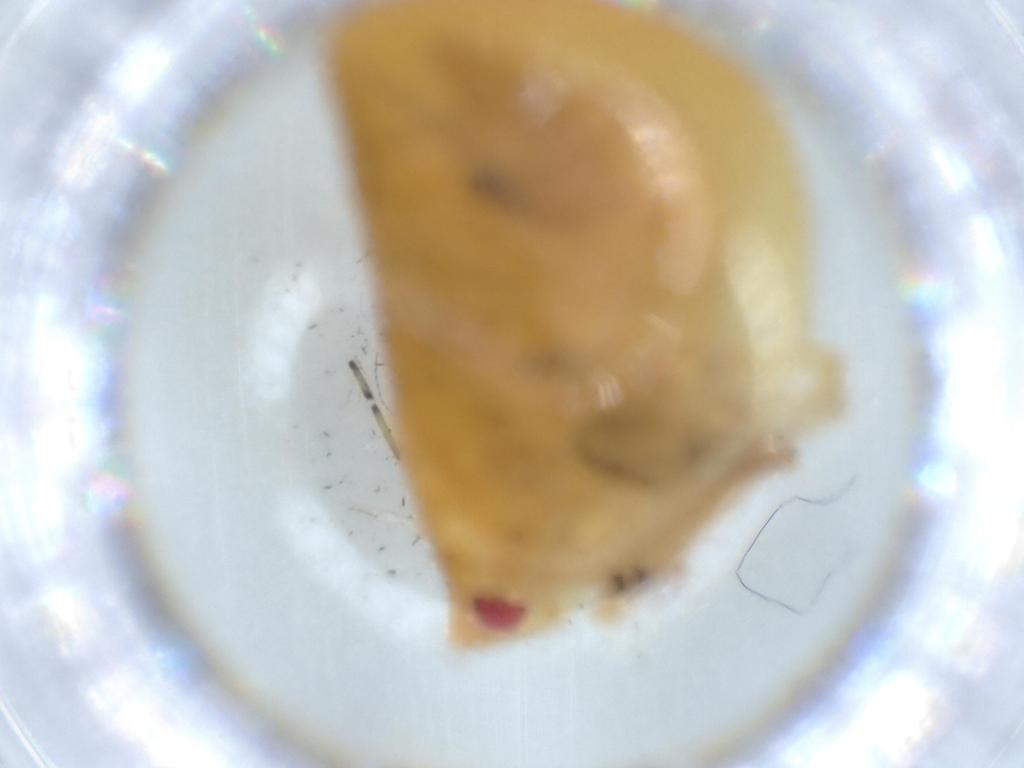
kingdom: Animalia
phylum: Arthropoda
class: Insecta
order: Hemiptera
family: Acanaloniidae
